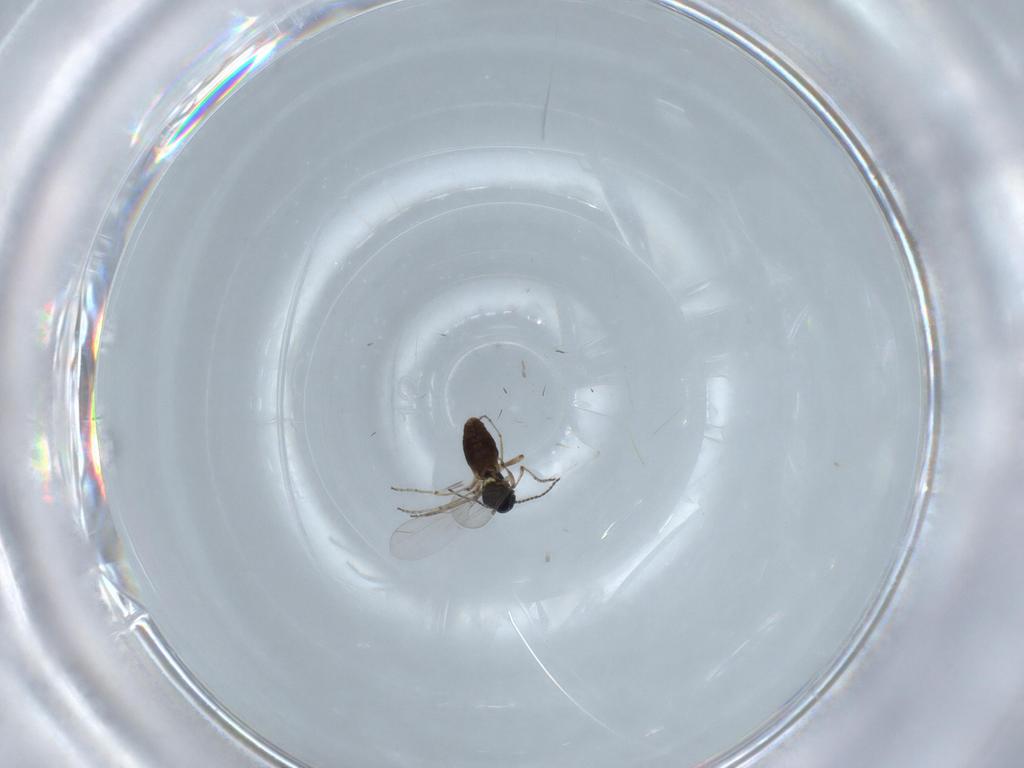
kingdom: Animalia
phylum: Arthropoda
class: Insecta
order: Diptera
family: Ceratopogonidae
